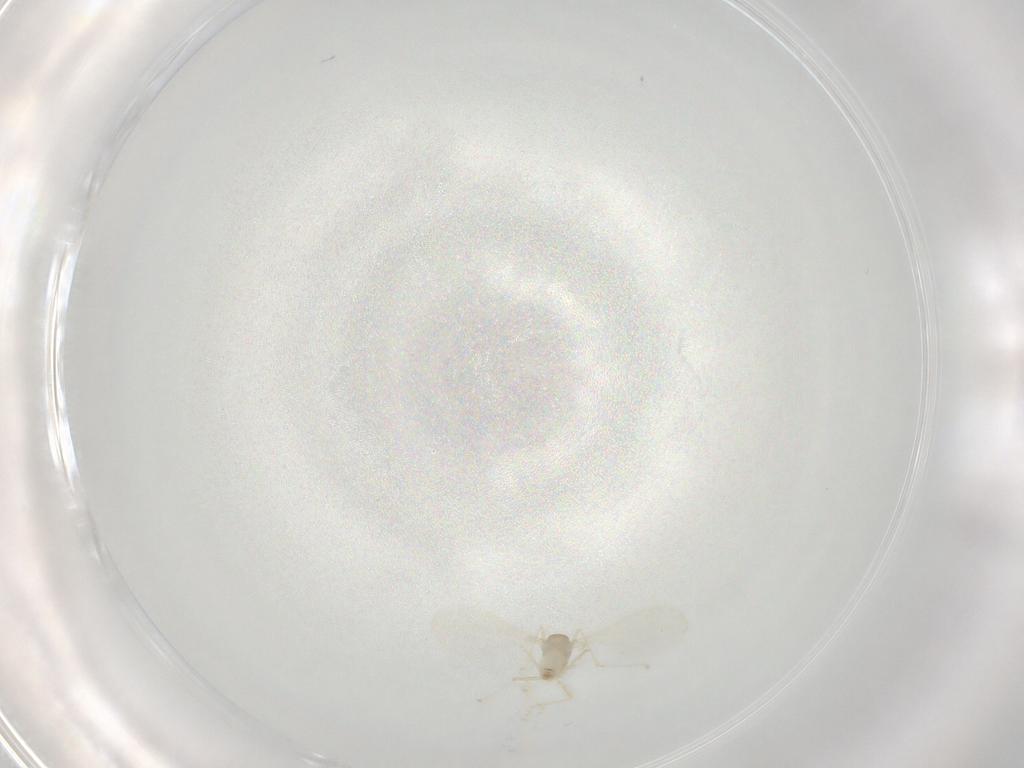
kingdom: Animalia
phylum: Arthropoda
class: Insecta
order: Diptera
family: Cecidomyiidae
